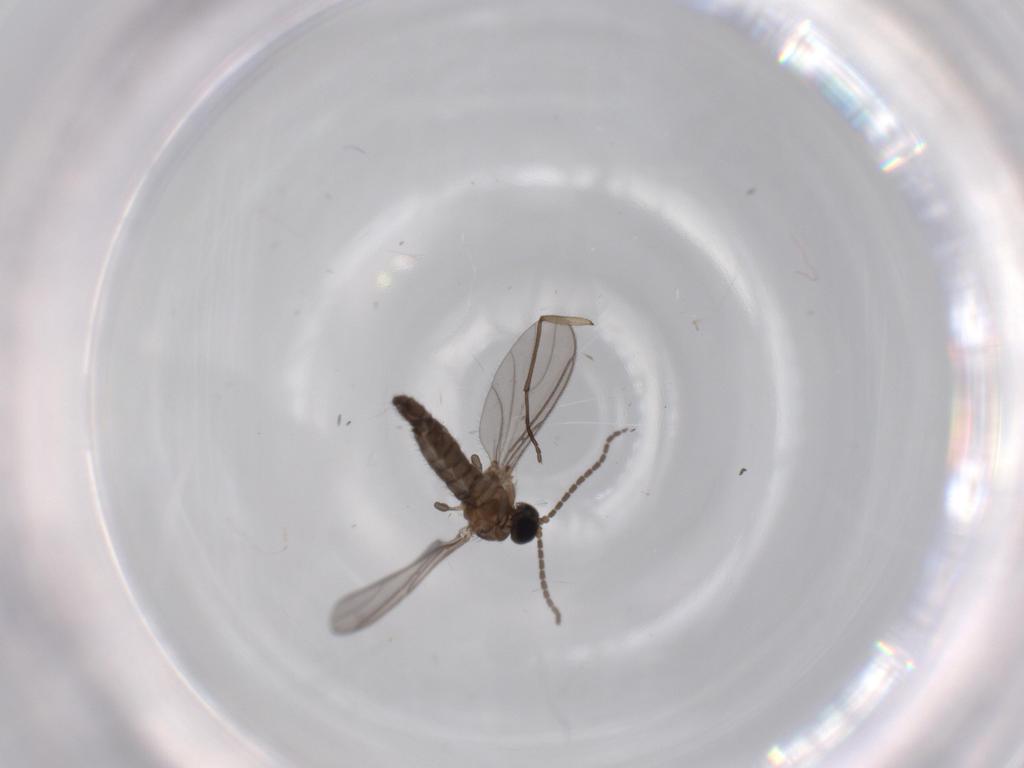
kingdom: Animalia
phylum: Arthropoda
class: Insecta
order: Diptera
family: Sciaridae
